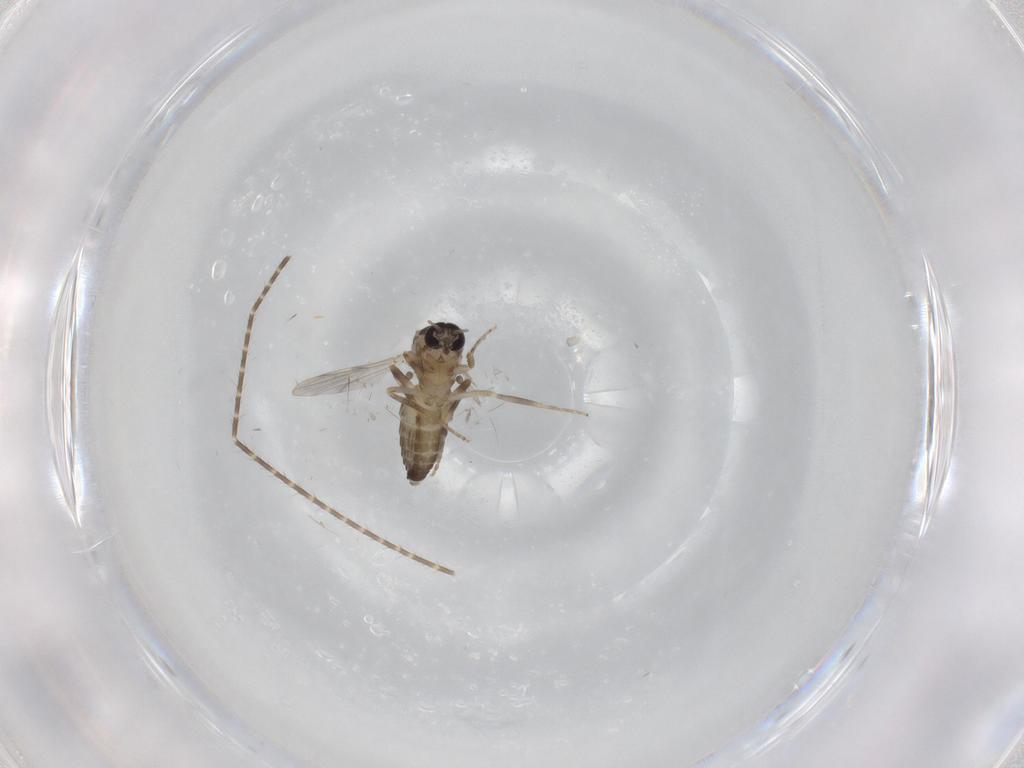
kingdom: Animalia
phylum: Arthropoda
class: Insecta
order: Diptera
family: Ceratopogonidae
